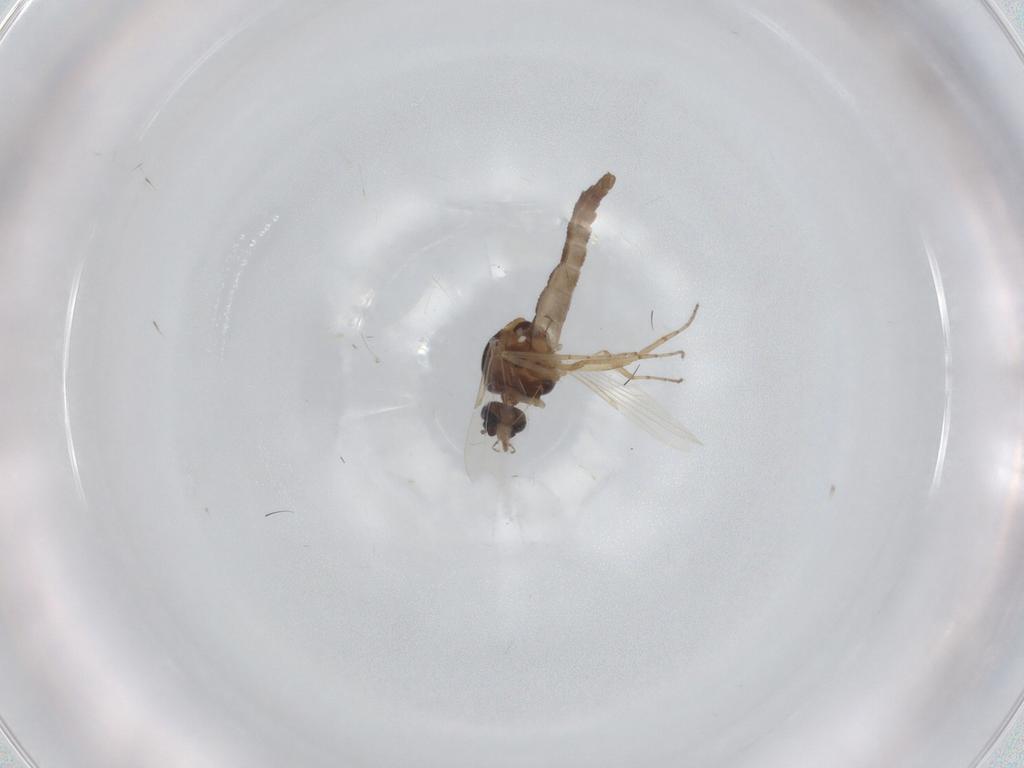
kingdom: Animalia
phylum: Arthropoda
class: Insecta
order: Diptera
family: Ceratopogonidae
